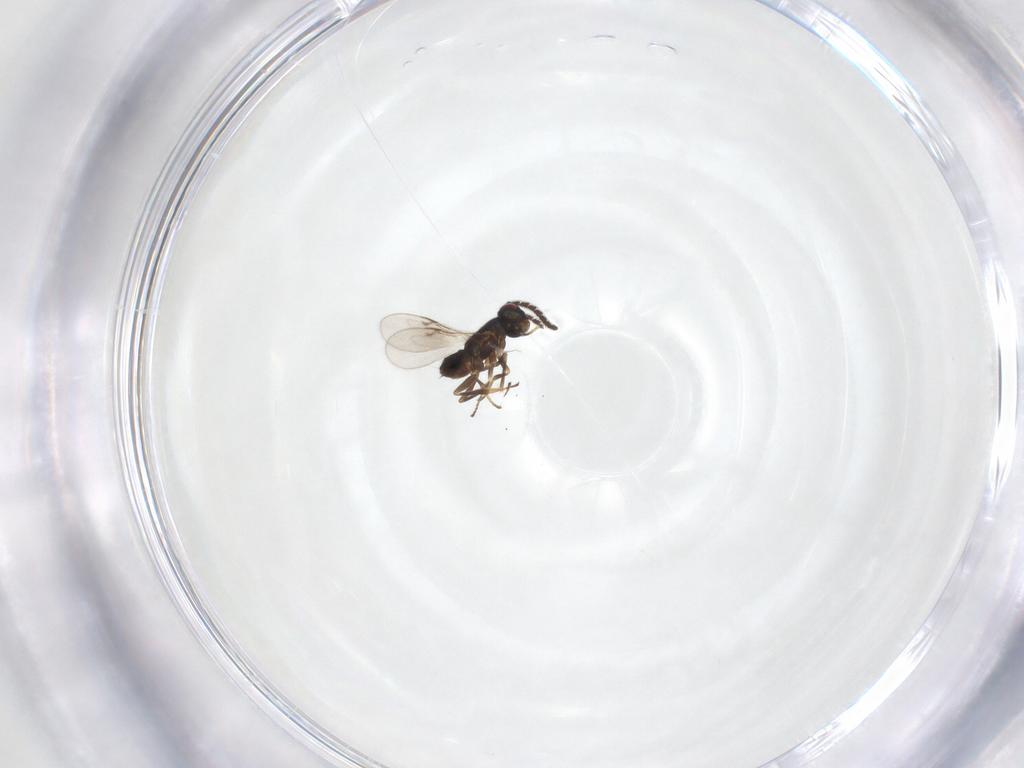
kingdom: Animalia
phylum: Arthropoda
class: Insecta
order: Hymenoptera
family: Encyrtidae
